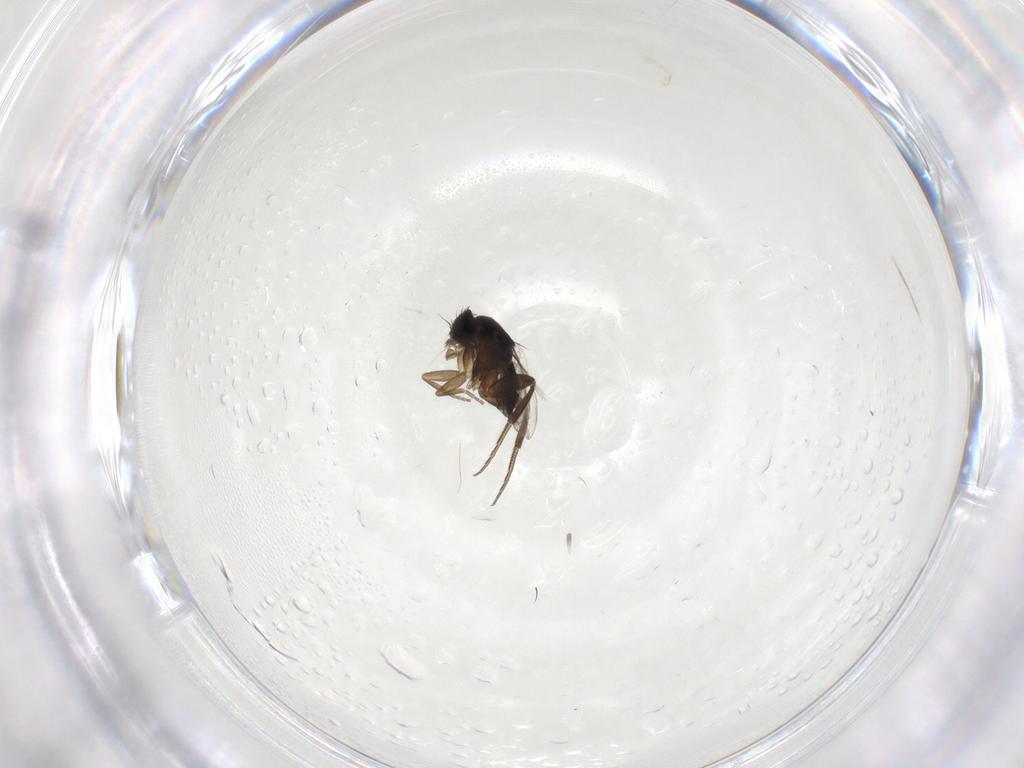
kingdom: Animalia
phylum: Arthropoda
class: Insecta
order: Diptera
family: Phoridae
